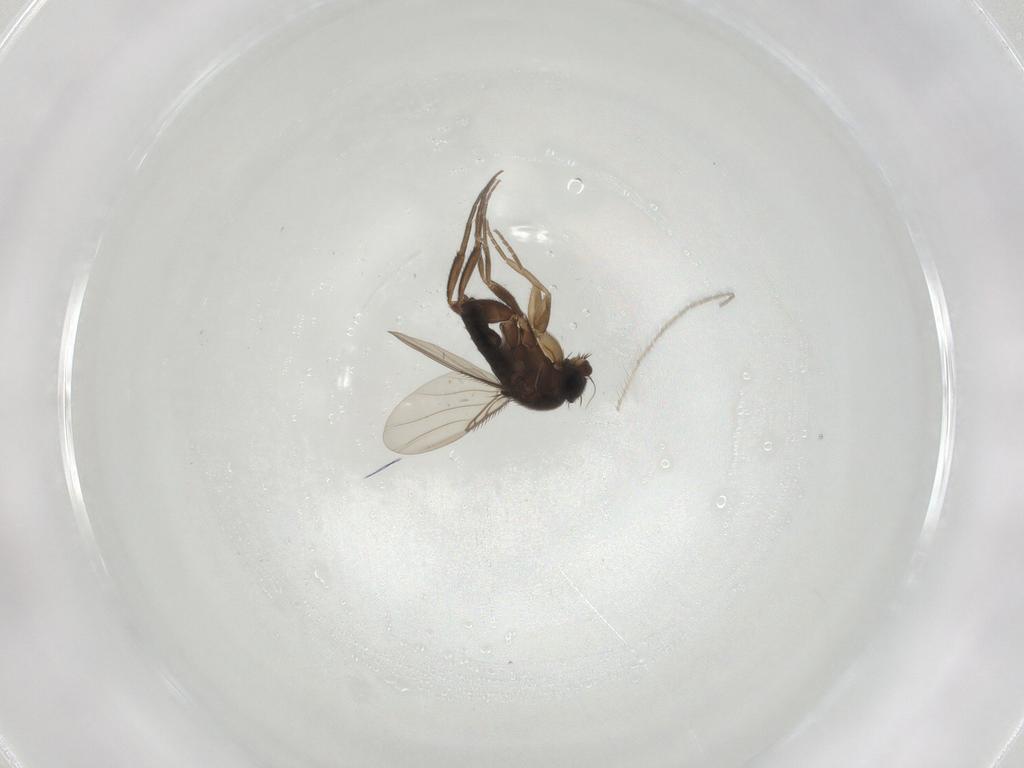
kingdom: Animalia
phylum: Arthropoda
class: Insecta
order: Diptera
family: Phoridae
